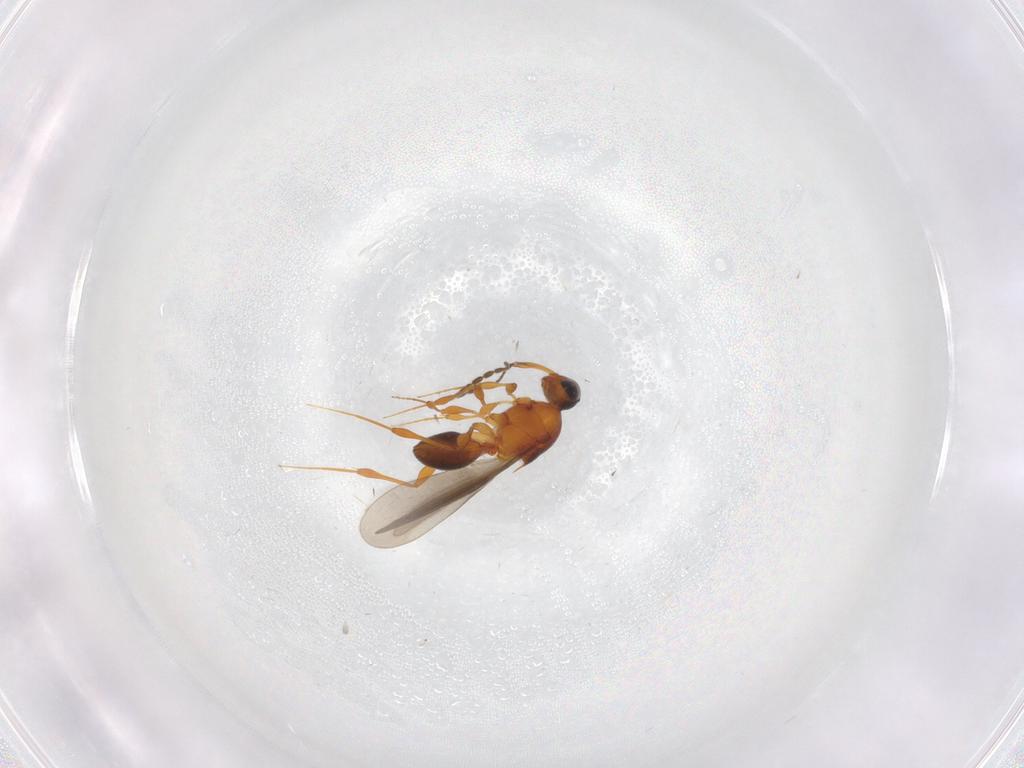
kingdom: Animalia
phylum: Arthropoda
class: Insecta
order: Hymenoptera
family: Platygastridae
